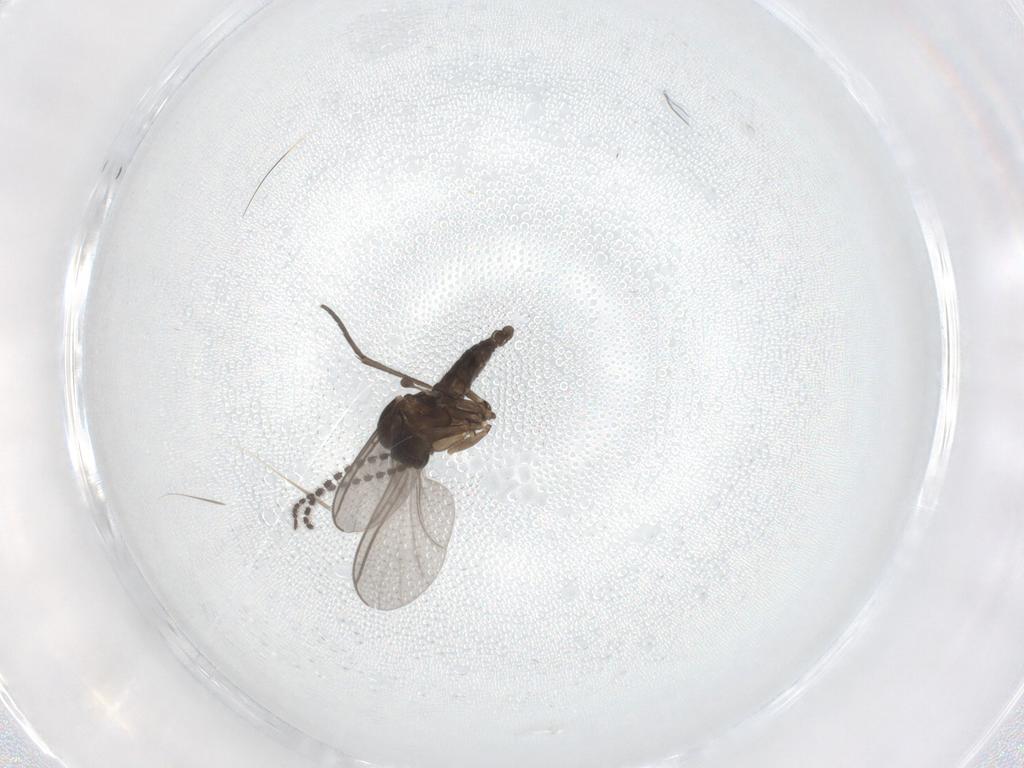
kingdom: Animalia
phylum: Arthropoda
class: Insecta
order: Diptera
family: Sciaridae
